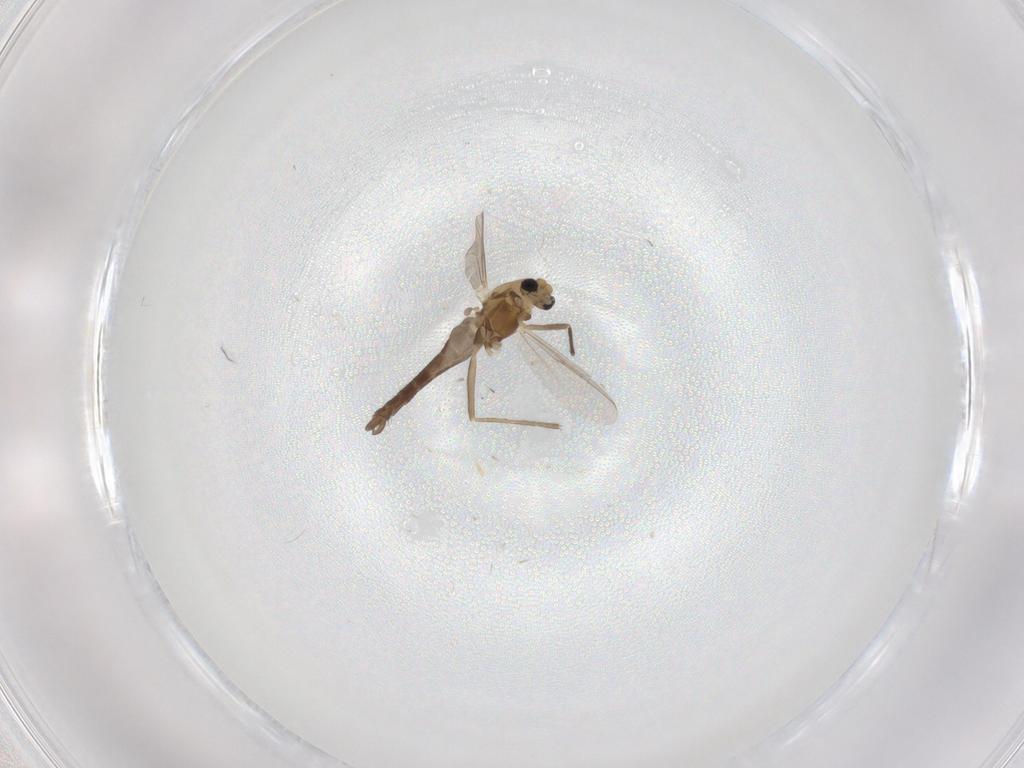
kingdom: Animalia
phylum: Arthropoda
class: Insecta
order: Diptera
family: Chironomidae
